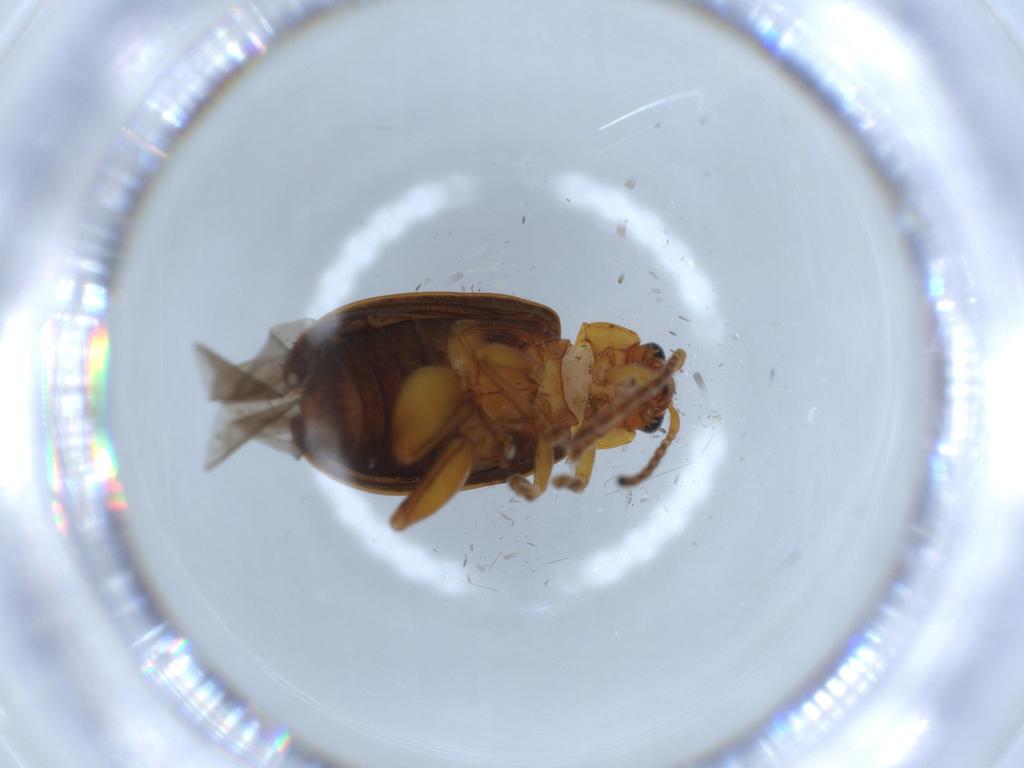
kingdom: Animalia
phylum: Arthropoda
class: Insecta
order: Coleoptera
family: Chrysomelidae
